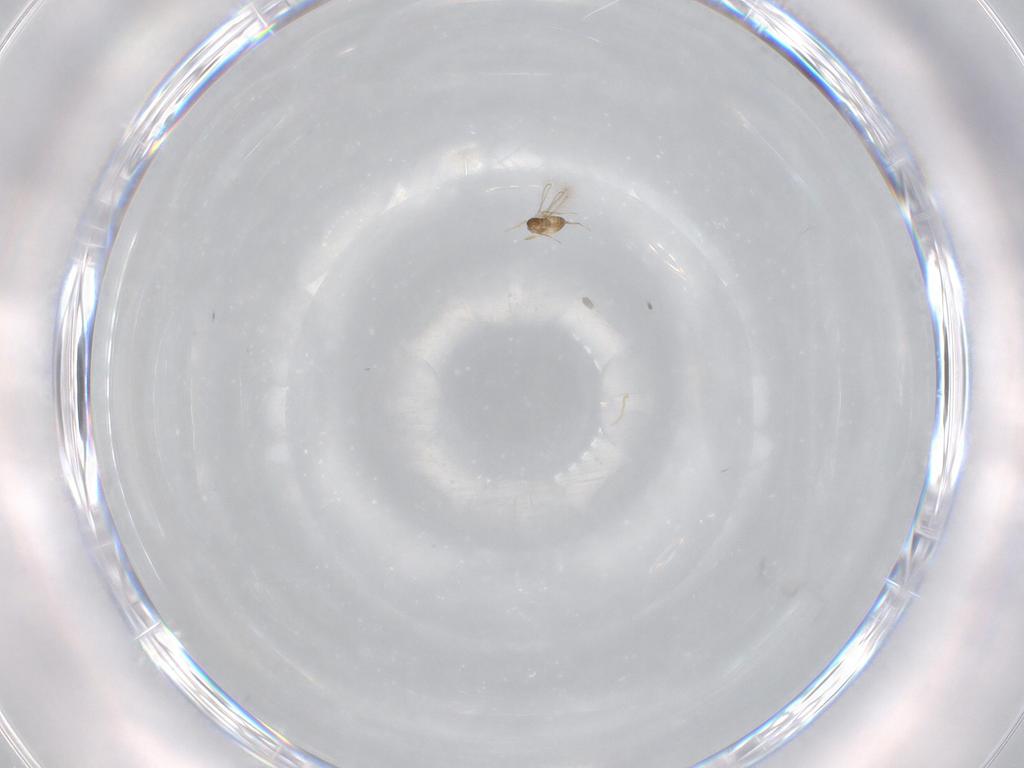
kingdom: Animalia
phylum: Arthropoda
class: Insecta
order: Hymenoptera
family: Mymaridae
